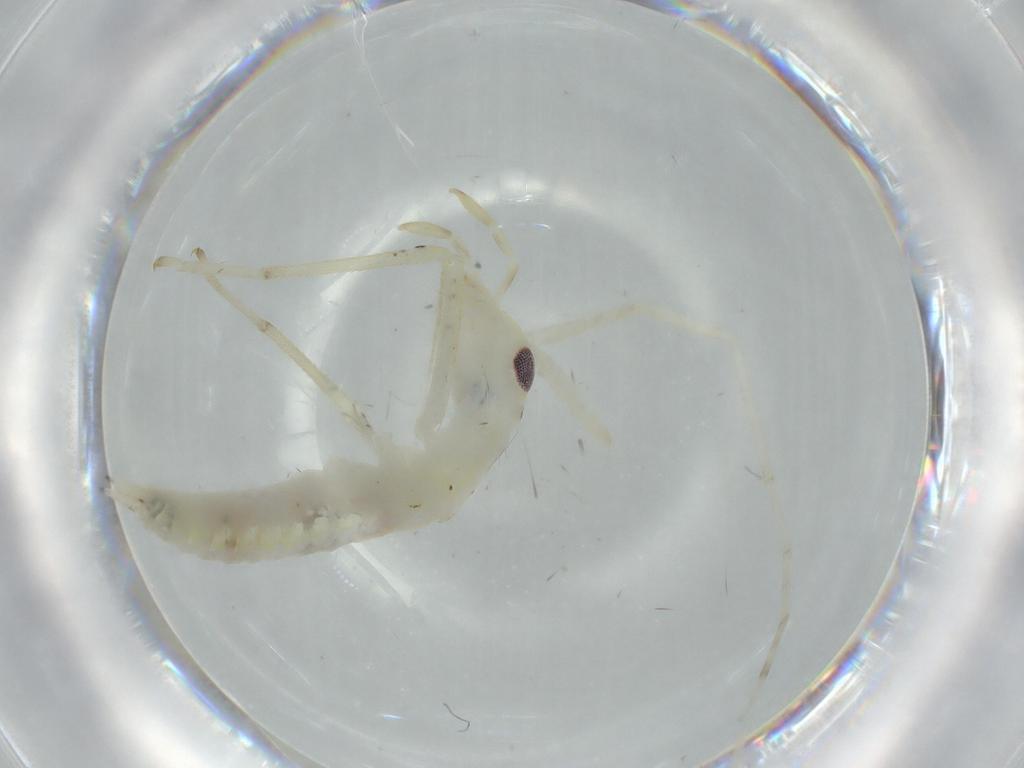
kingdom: Animalia
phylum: Arthropoda
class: Insecta
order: Orthoptera
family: Oecanthidae
